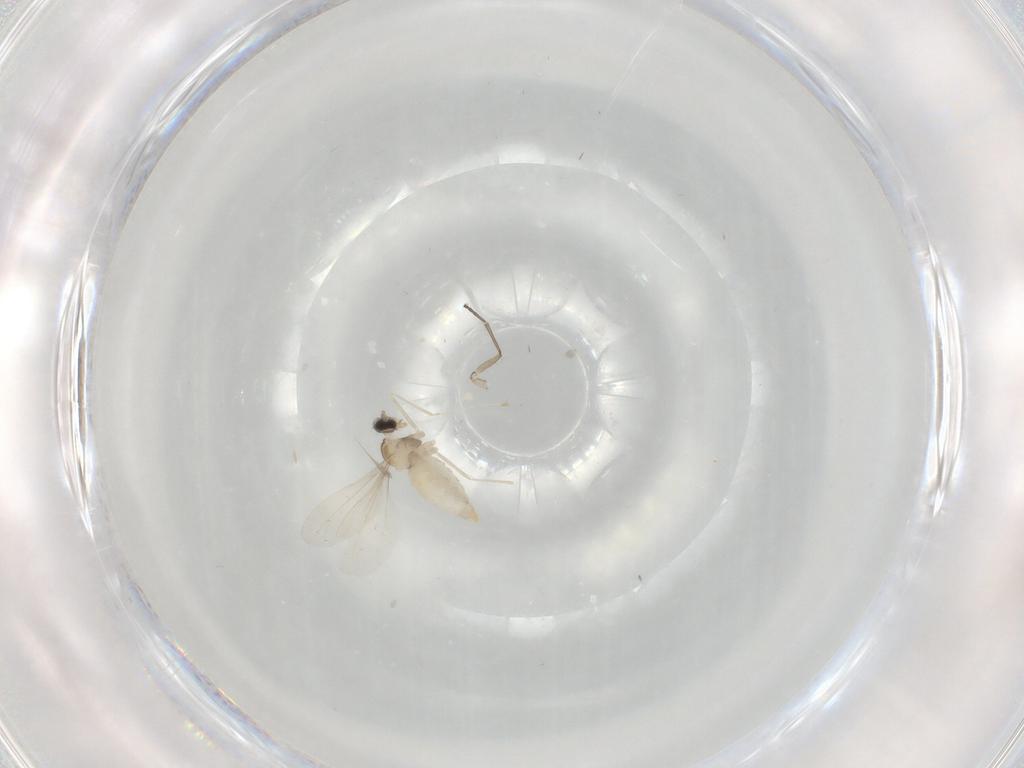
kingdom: Animalia
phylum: Arthropoda
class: Insecta
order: Diptera
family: Cecidomyiidae
